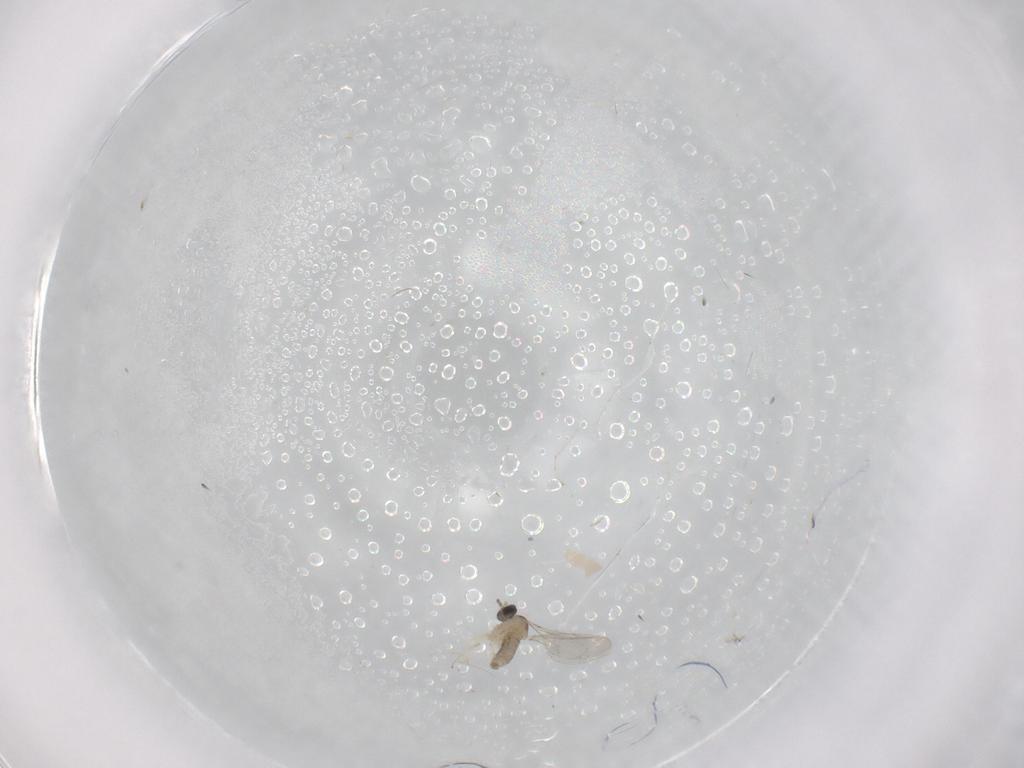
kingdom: Animalia
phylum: Arthropoda
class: Insecta
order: Diptera
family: Cecidomyiidae
